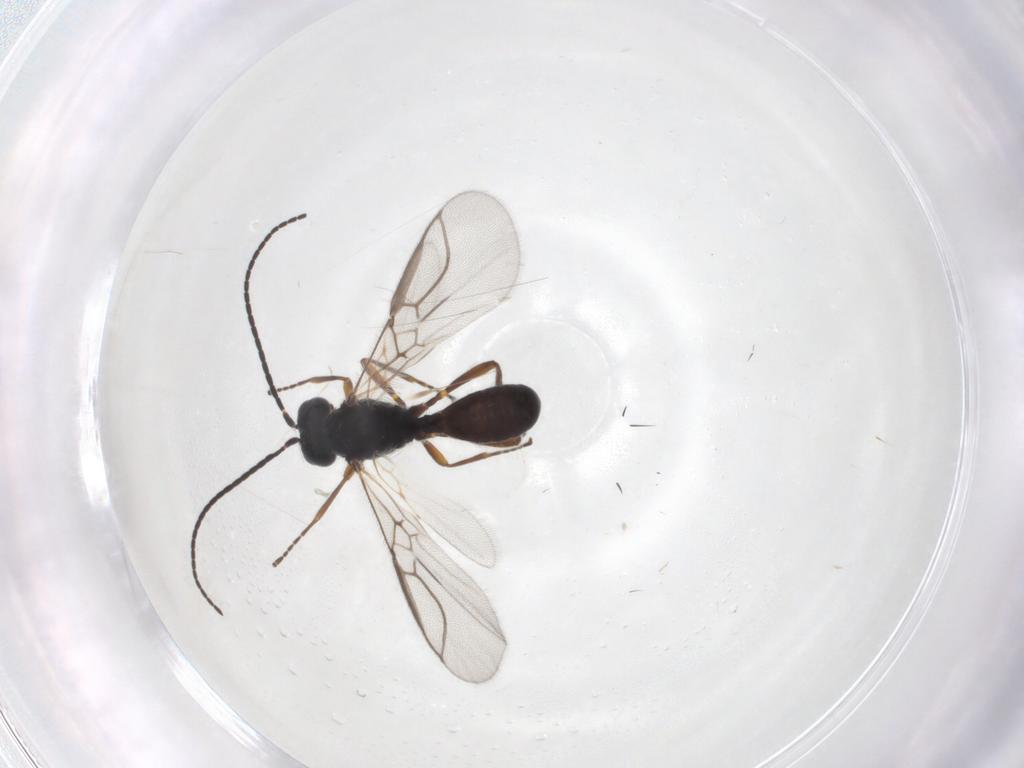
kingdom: Animalia
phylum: Arthropoda
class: Insecta
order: Hymenoptera
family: Braconidae
